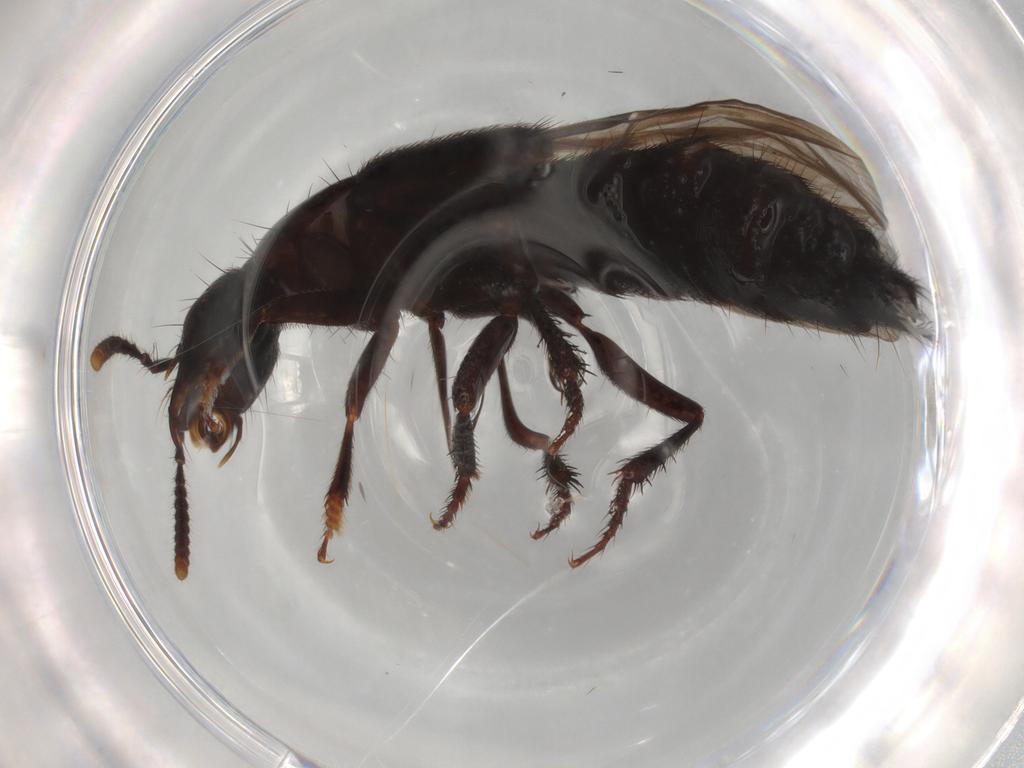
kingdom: Animalia
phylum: Arthropoda
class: Insecta
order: Coleoptera
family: Staphylinidae
